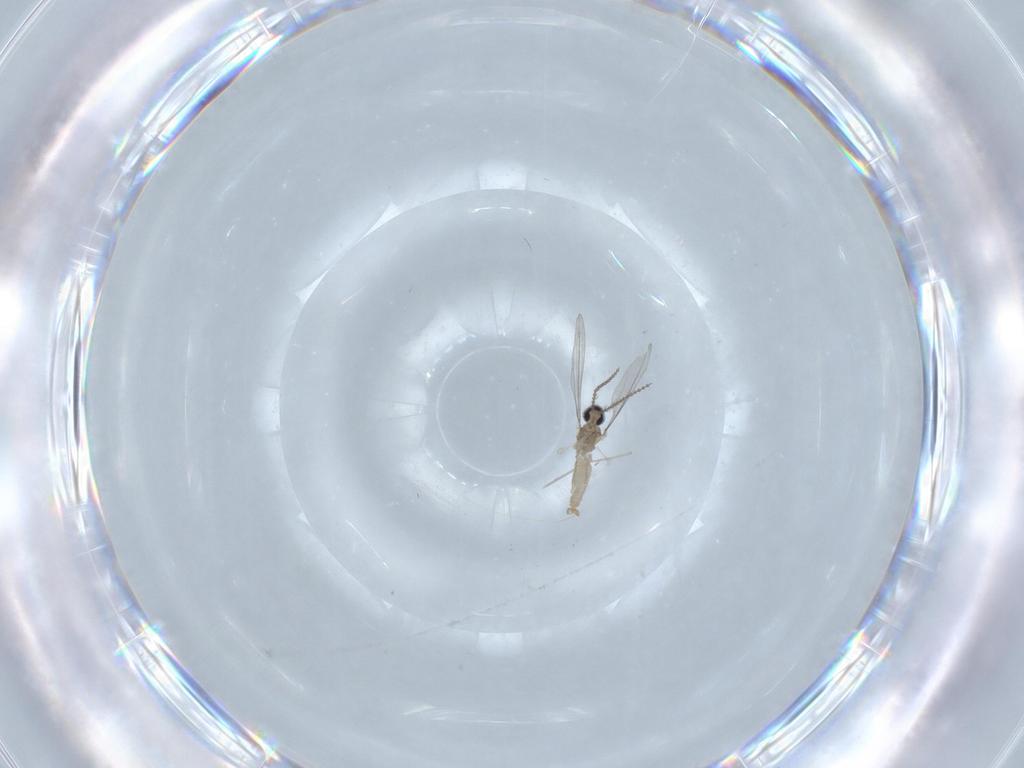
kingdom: Animalia
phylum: Arthropoda
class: Insecta
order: Diptera
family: Cecidomyiidae
